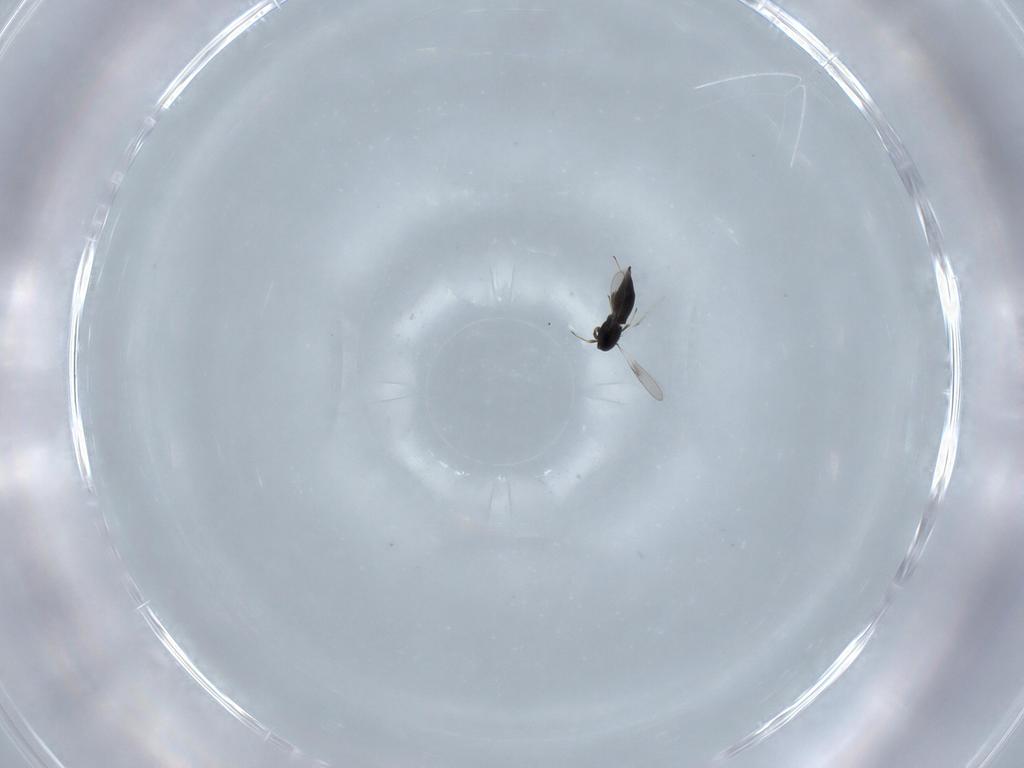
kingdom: Animalia
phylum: Arthropoda
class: Insecta
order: Hymenoptera
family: Scelionidae
